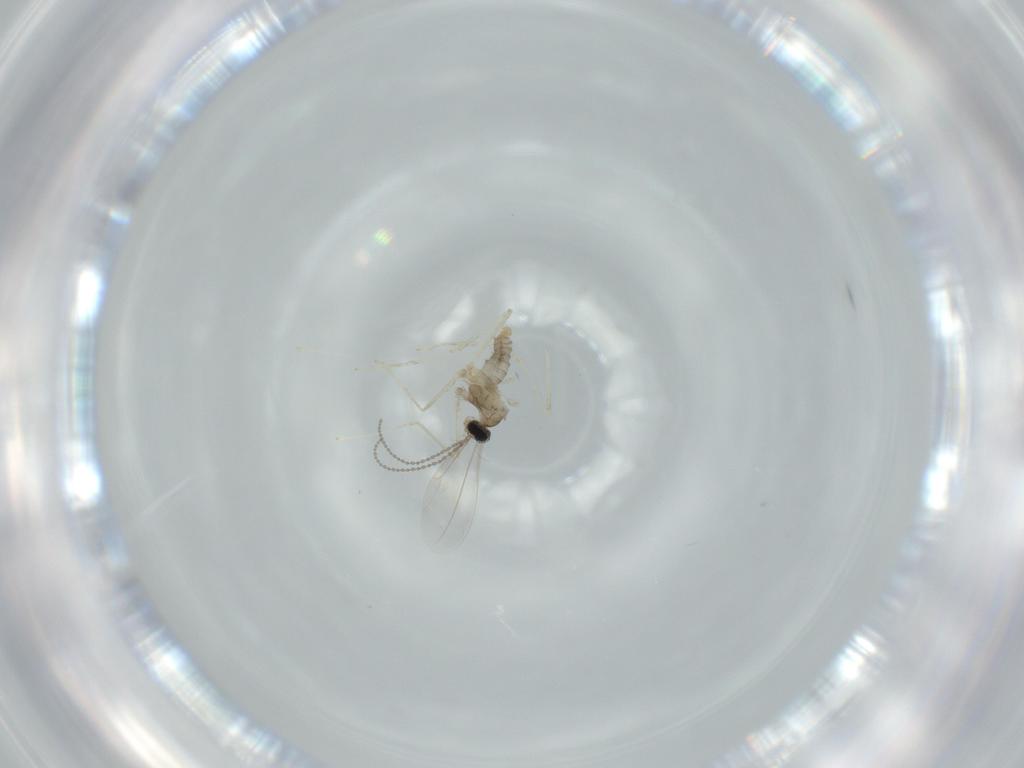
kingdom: Animalia
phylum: Arthropoda
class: Insecta
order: Diptera
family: Cecidomyiidae
